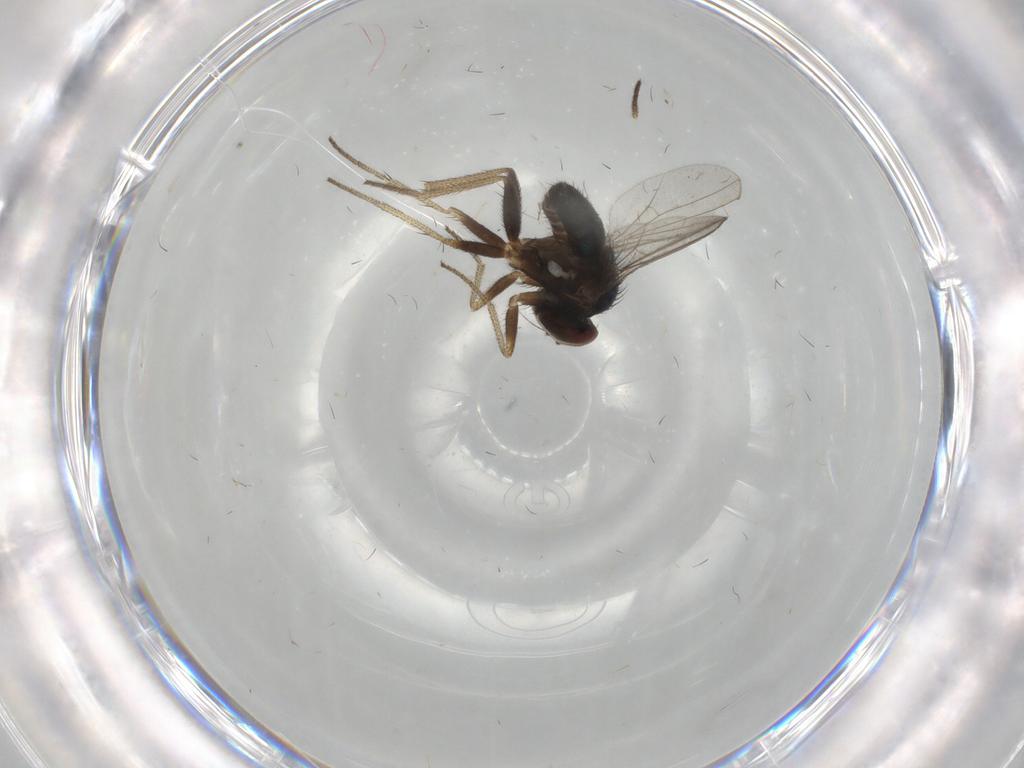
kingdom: Animalia
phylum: Arthropoda
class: Insecta
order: Diptera
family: Dolichopodidae
